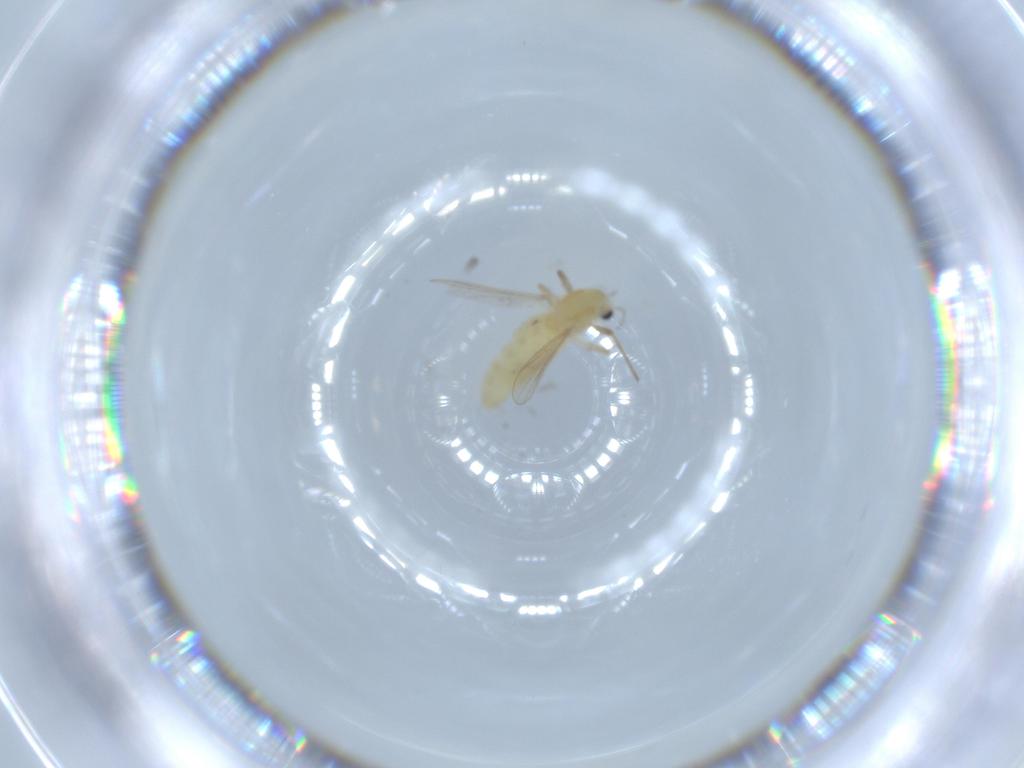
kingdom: Animalia
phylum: Arthropoda
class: Insecta
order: Diptera
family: Chironomidae
